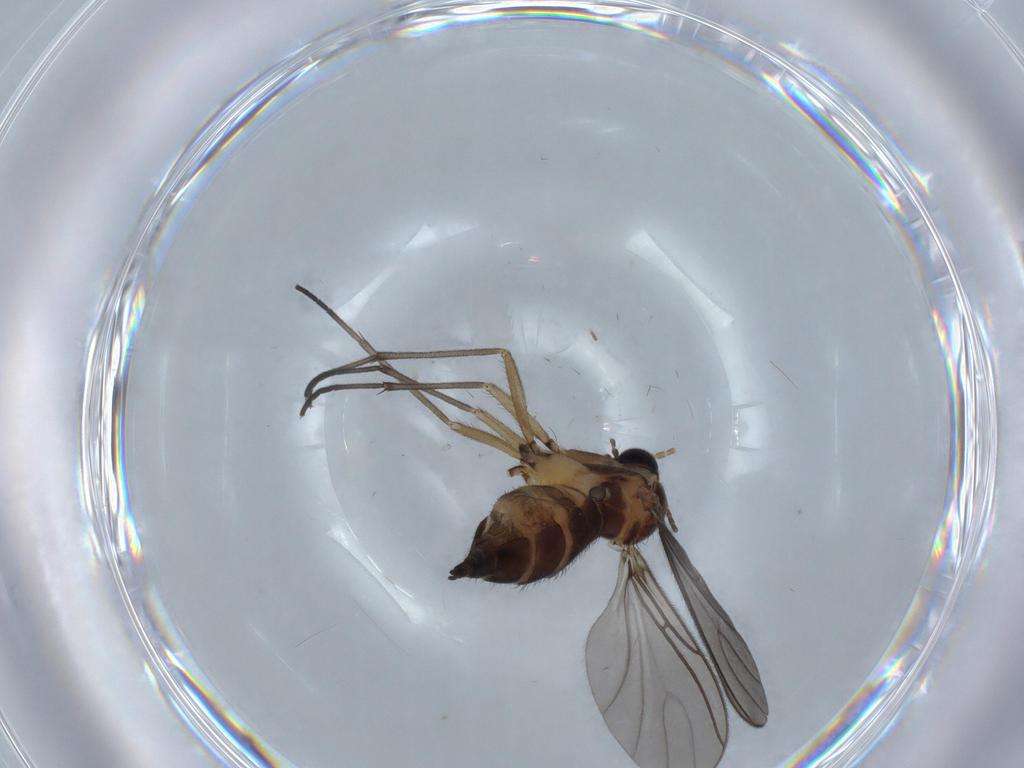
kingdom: Animalia
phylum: Arthropoda
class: Insecta
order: Diptera
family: Sciaridae
